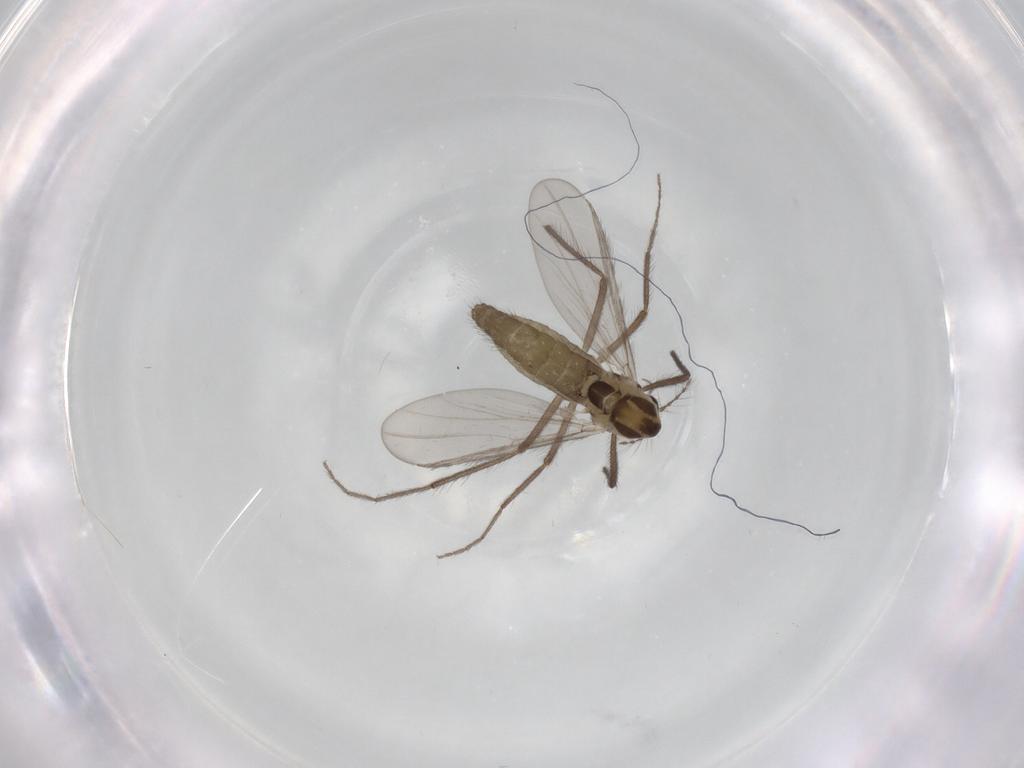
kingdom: Animalia
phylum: Arthropoda
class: Insecta
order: Diptera
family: Chironomidae
